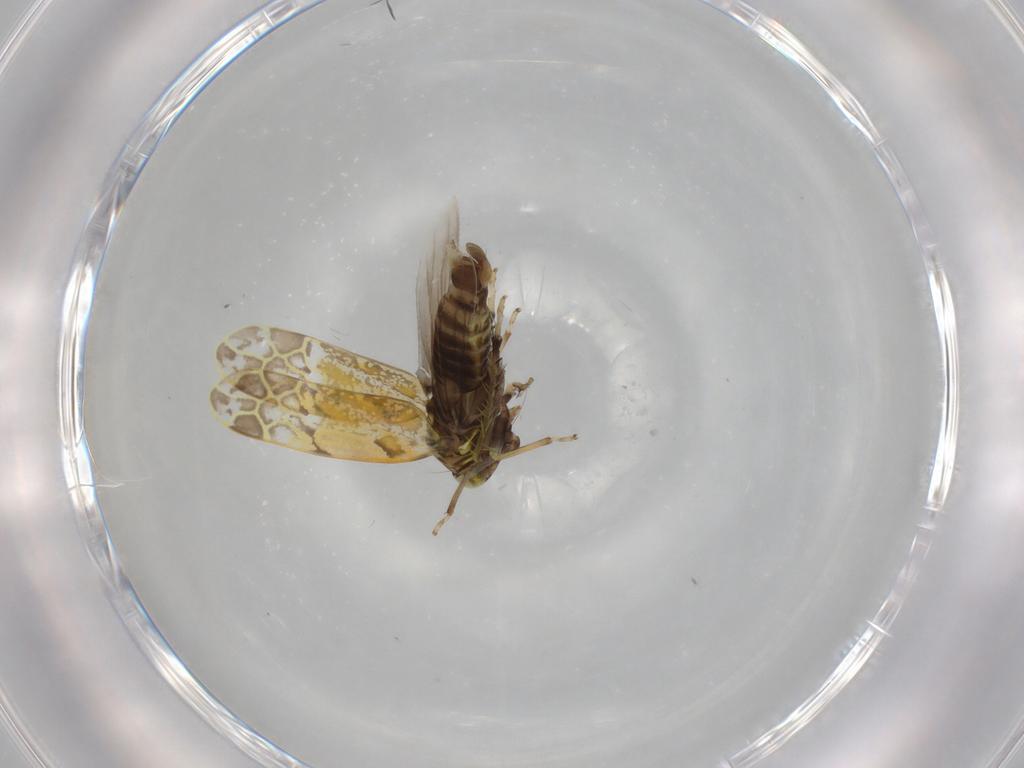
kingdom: Animalia
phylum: Arthropoda
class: Insecta
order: Hemiptera
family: Cicadellidae
